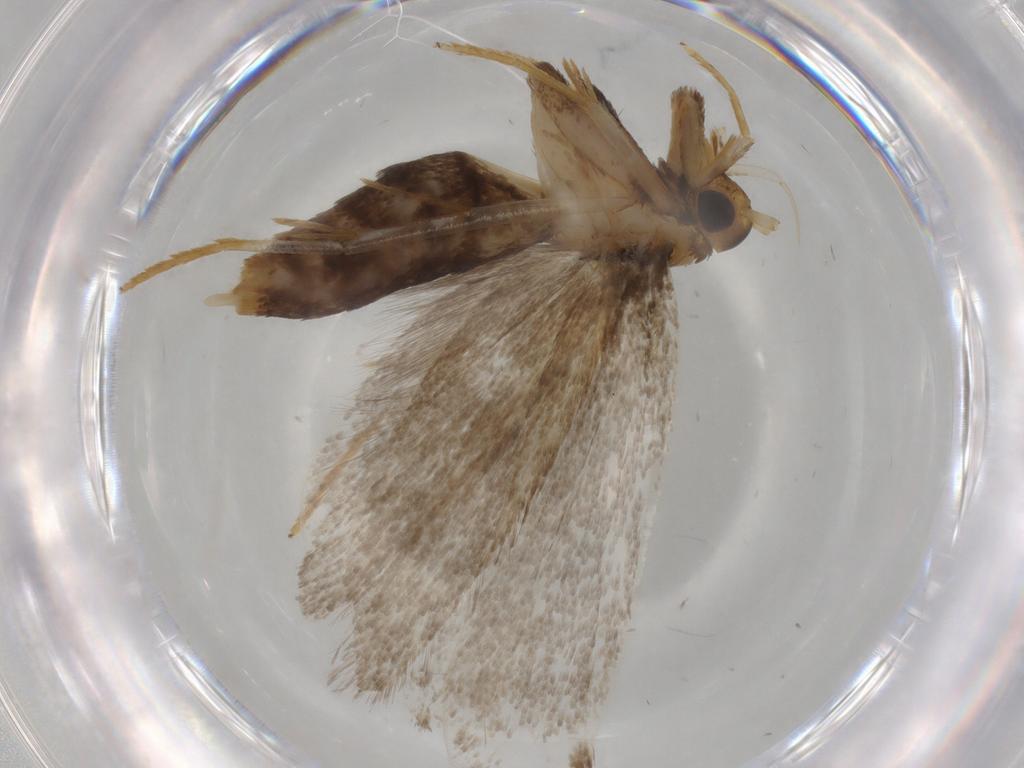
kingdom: Animalia
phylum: Arthropoda
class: Insecta
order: Lepidoptera
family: Lecithoceridae
